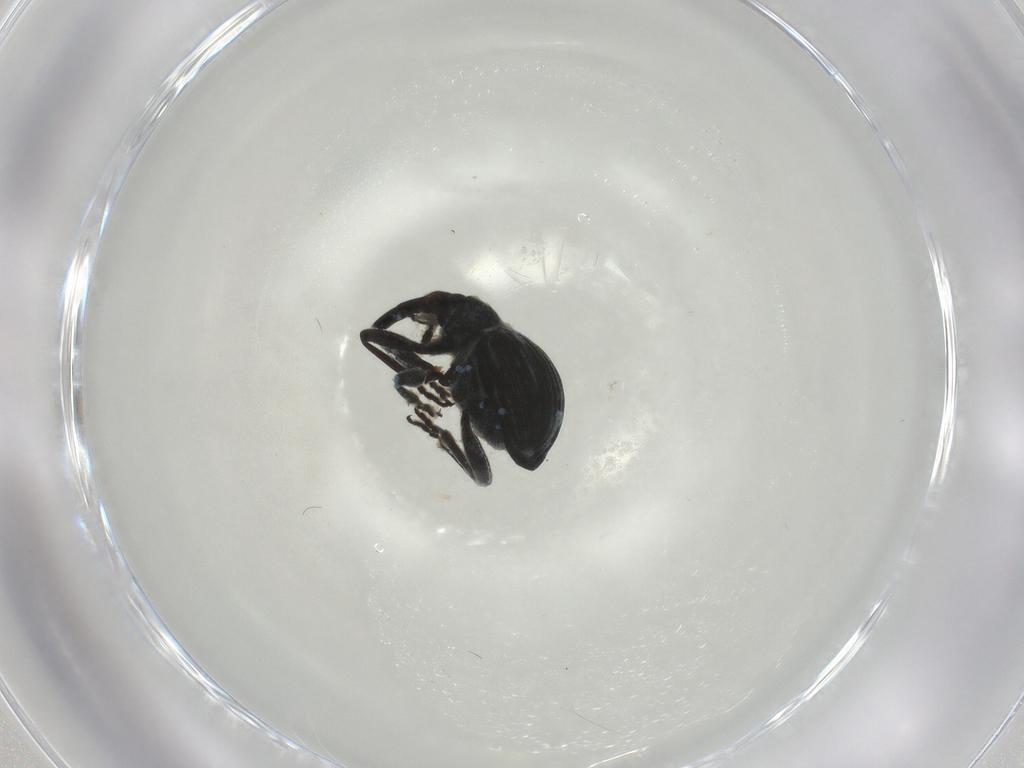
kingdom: Animalia
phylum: Arthropoda
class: Insecta
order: Coleoptera
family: Brentidae
